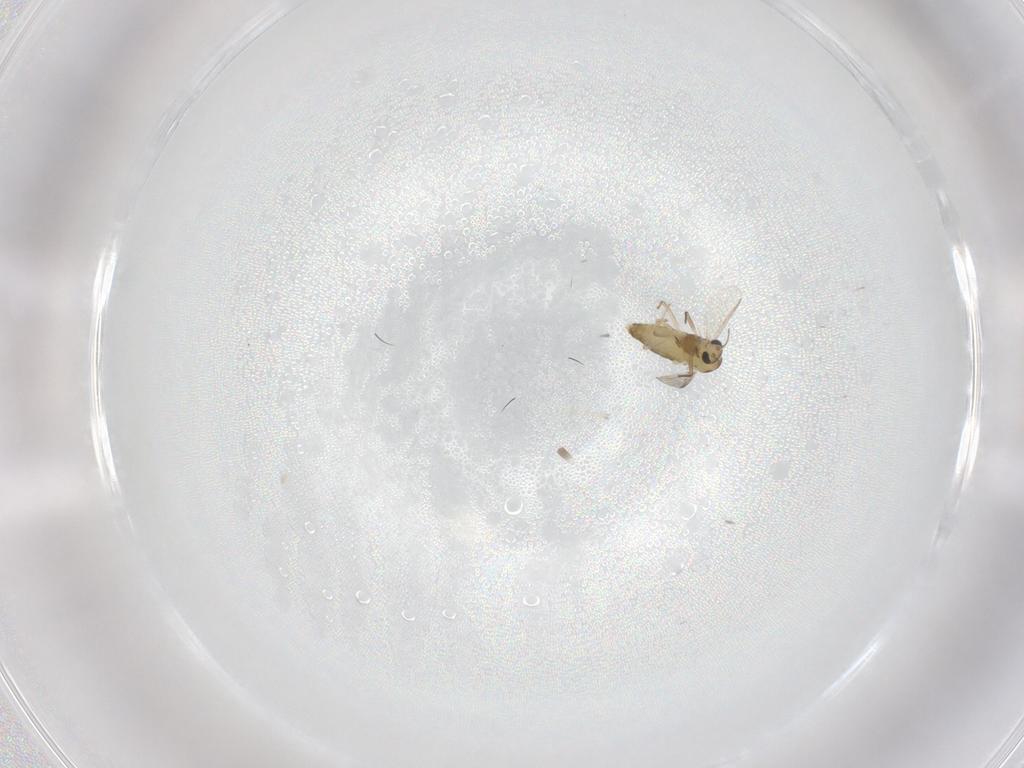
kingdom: Animalia
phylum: Arthropoda
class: Insecta
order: Diptera
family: Chironomidae
